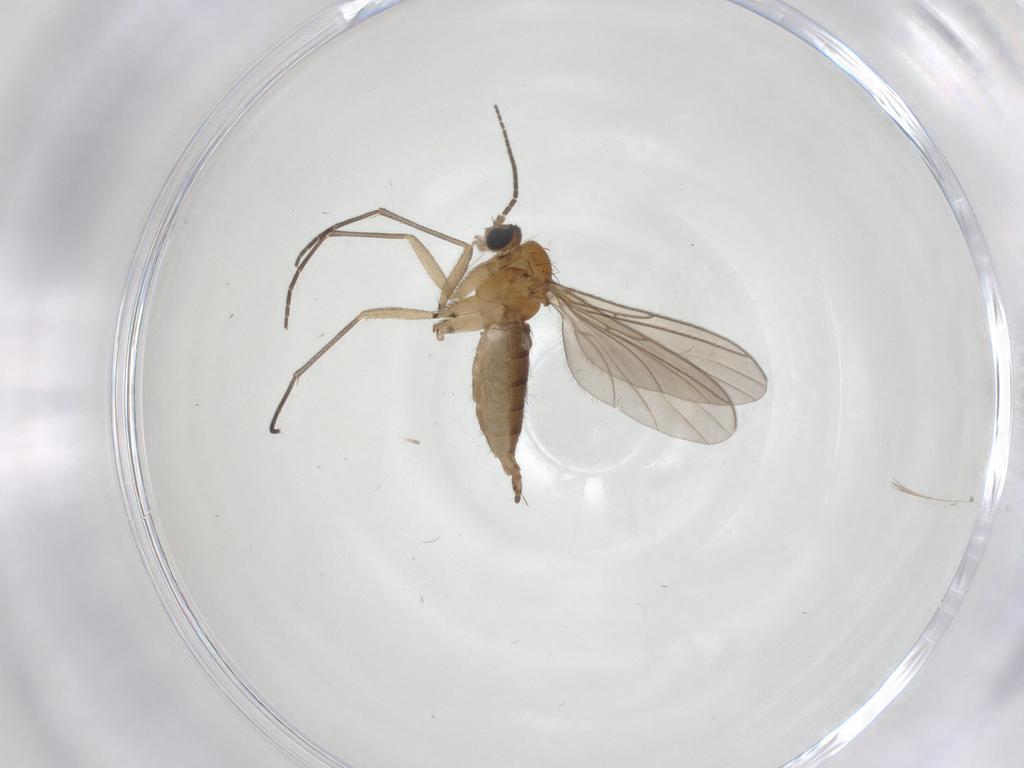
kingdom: Animalia
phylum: Arthropoda
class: Insecta
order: Diptera
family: Sciaridae
